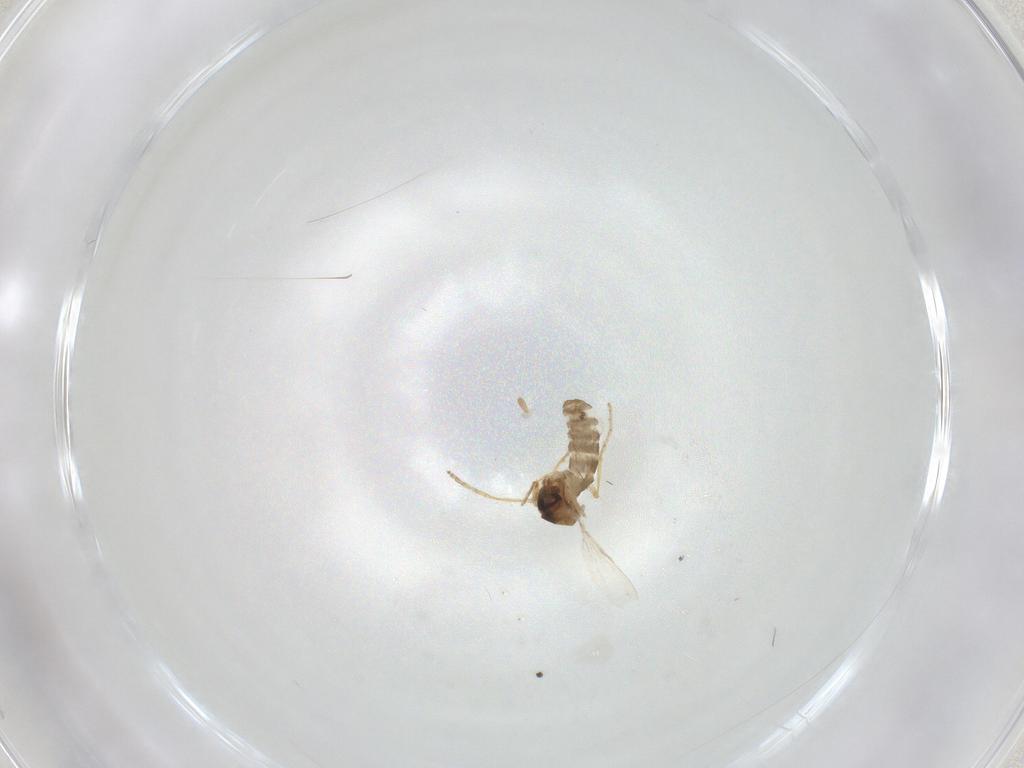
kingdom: Animalia
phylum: Arthropoda
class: Insecta
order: Diptera
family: Ceratopogonidae
